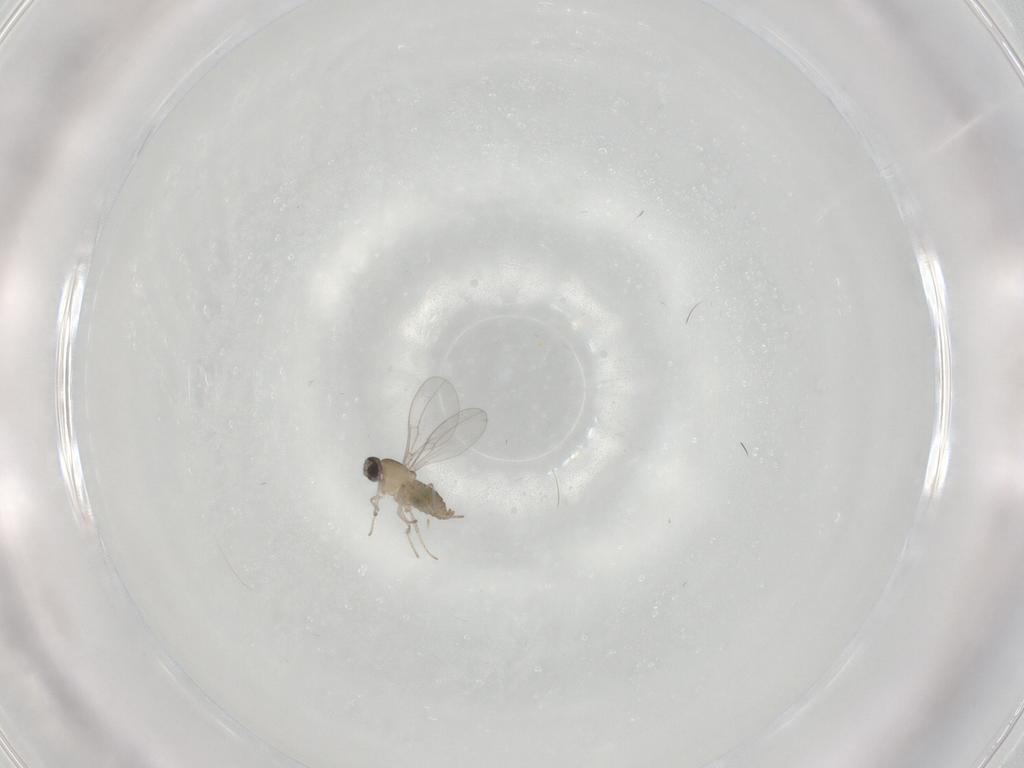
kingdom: Animalia
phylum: Arthropoda
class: Insecta
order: Diptera
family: Cecidomyiidae
